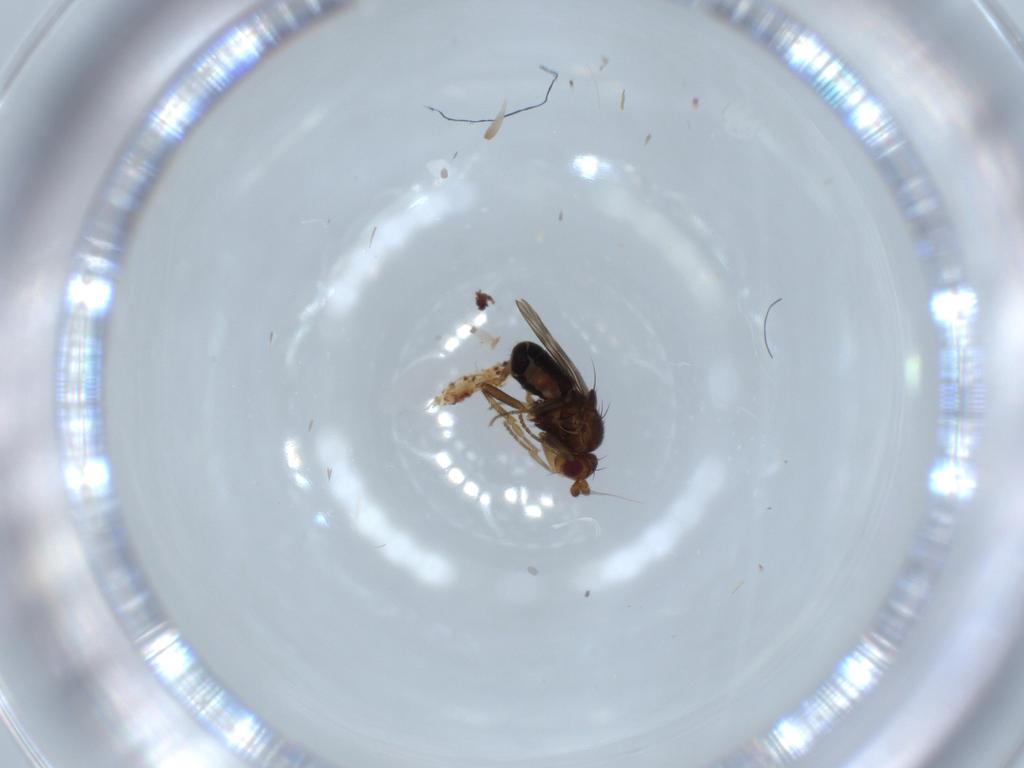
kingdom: Animalia
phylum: Arthropoda
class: Insecta
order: Diptera
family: Sphaeroceridae
